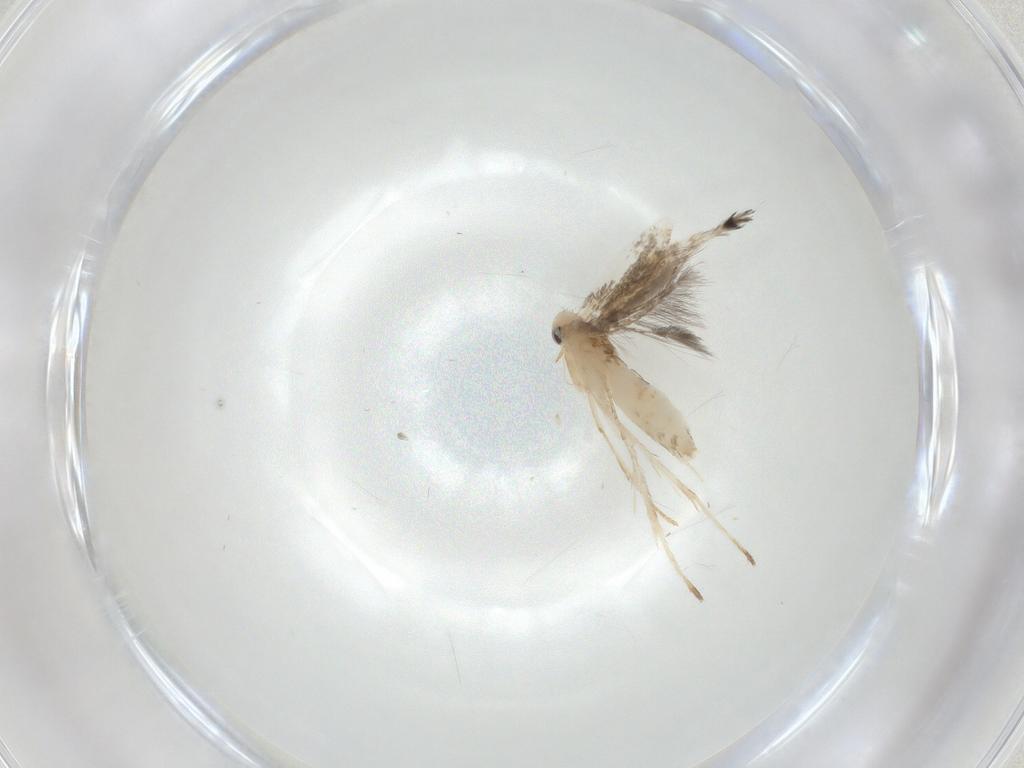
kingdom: Animalia
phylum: Arthropoda
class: Insecta
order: Lepidoptera
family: Gracillariidae
